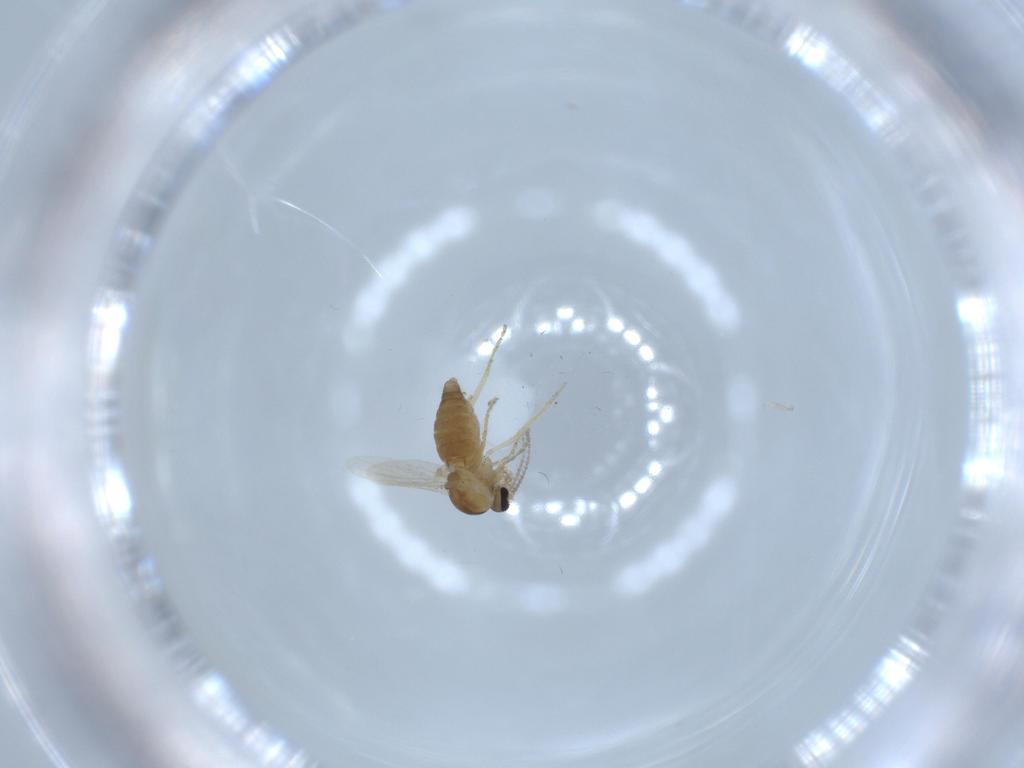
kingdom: Animalia
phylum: Arthropoda
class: Insecta
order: Diptera
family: Ceratopogonidae
